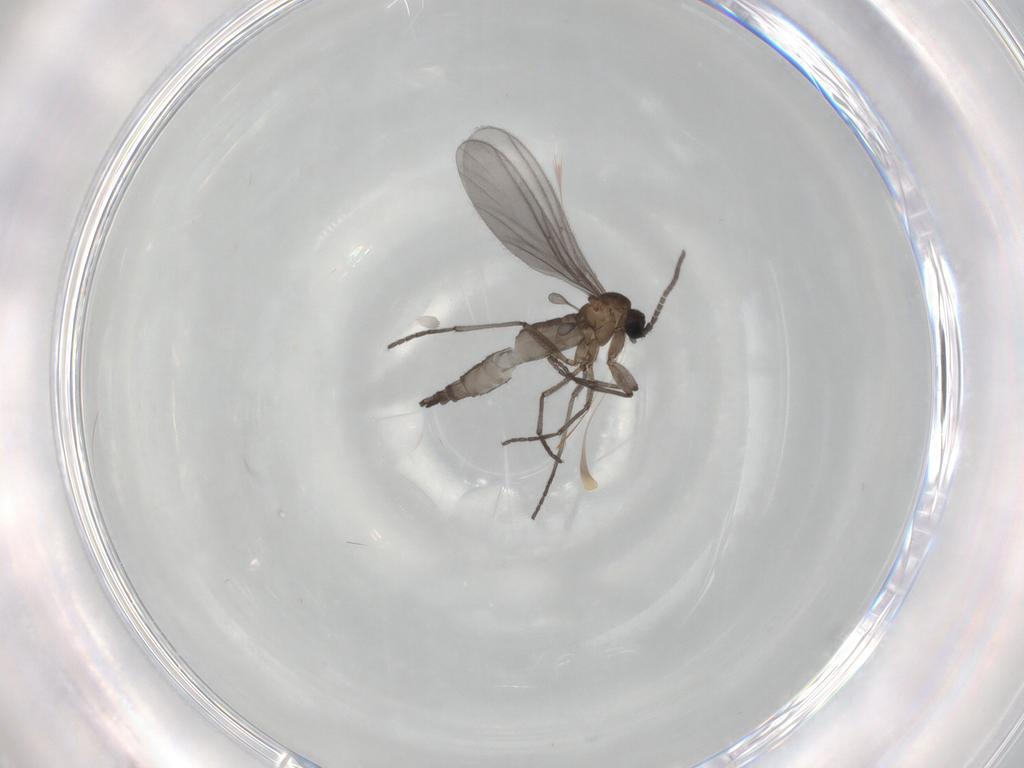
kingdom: Animalia
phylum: Arthropoda
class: Insecta
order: Diptera
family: Sciaridae
